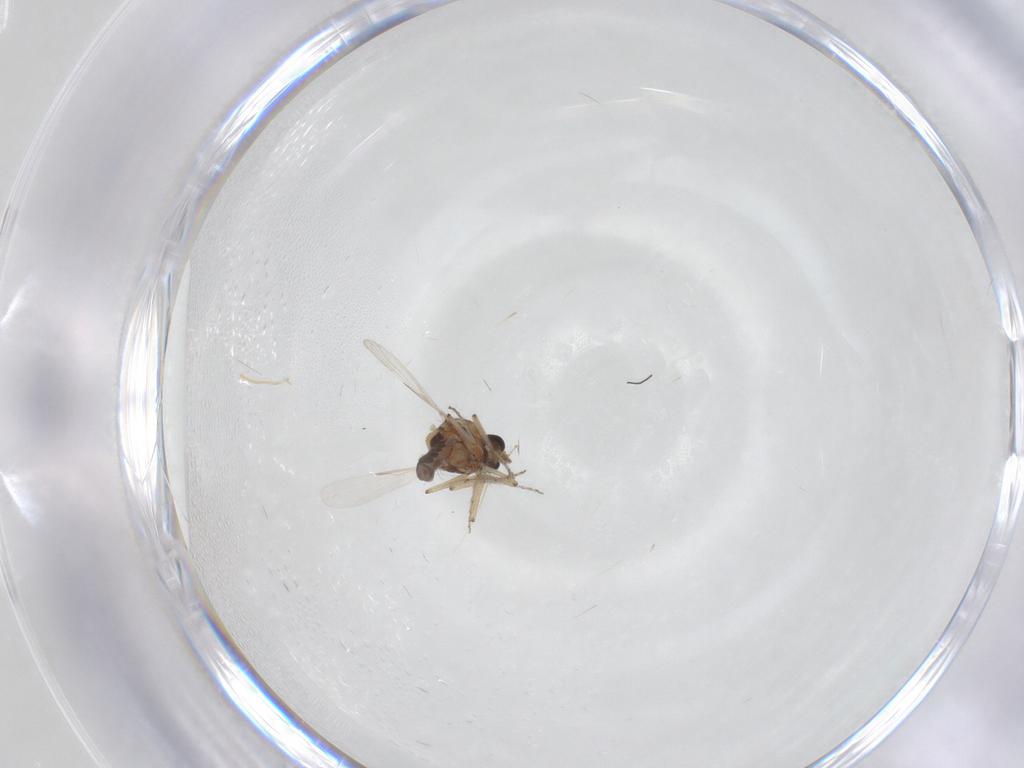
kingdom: Animalia
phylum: Arthropoda
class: Insecta
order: Diptera
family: Ceratopogonidae
